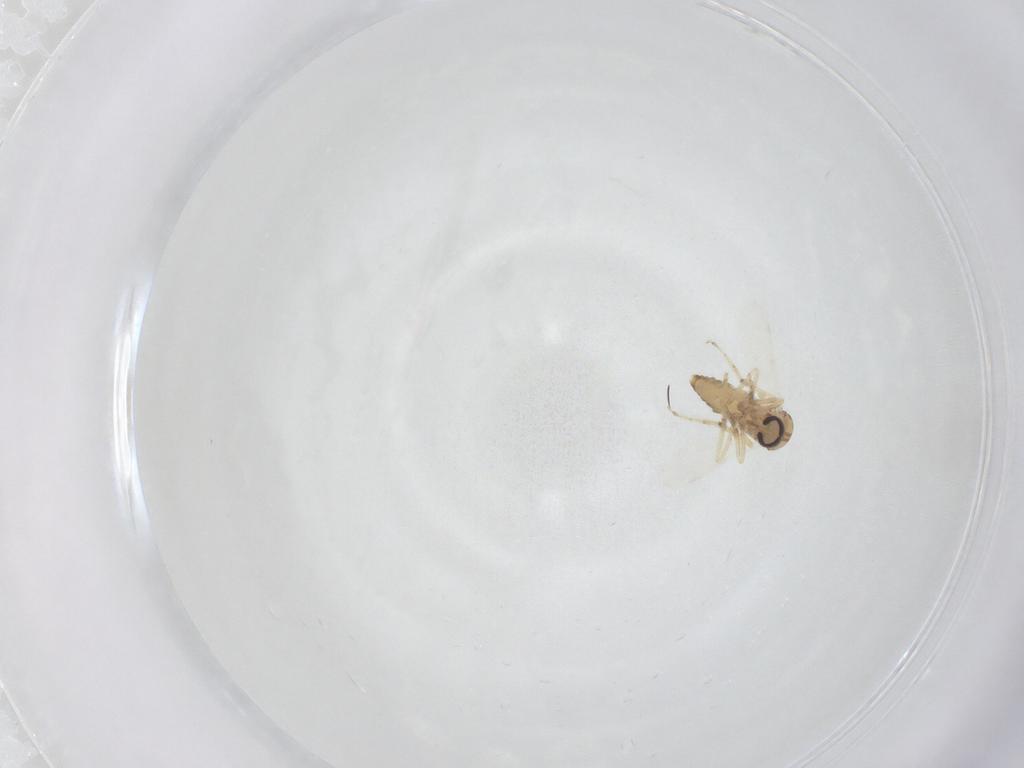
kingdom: Animalia
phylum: Arthropoda
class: Insecta
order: Diptera
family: Ceratopogonidae
